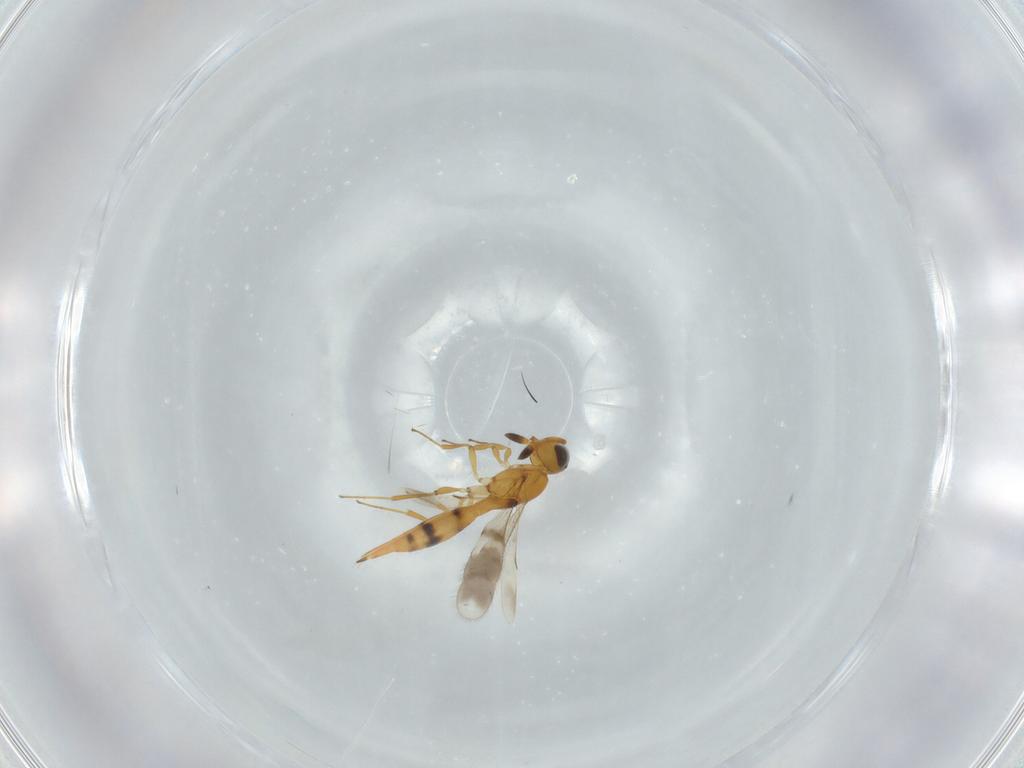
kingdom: Animalia
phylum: Arthropoda
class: Insecta
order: Hymenoptera
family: Scelionidae
